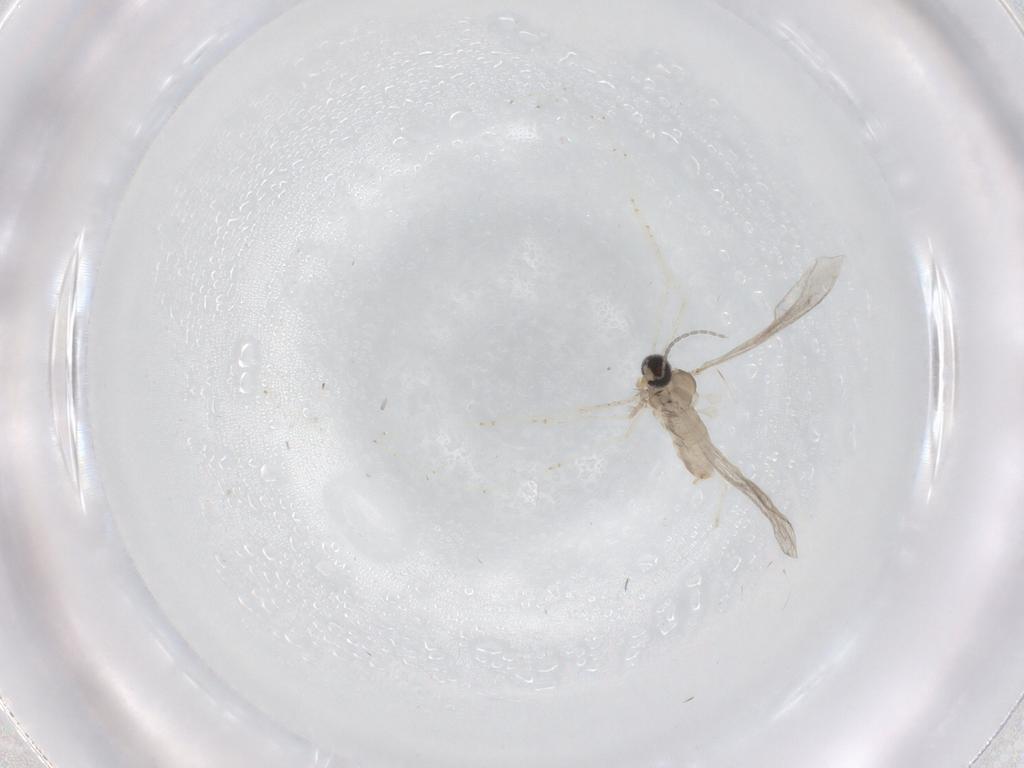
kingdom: Animalia
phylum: Arthropoda
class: Insecta
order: Diptera
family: Cecidomyiidae
